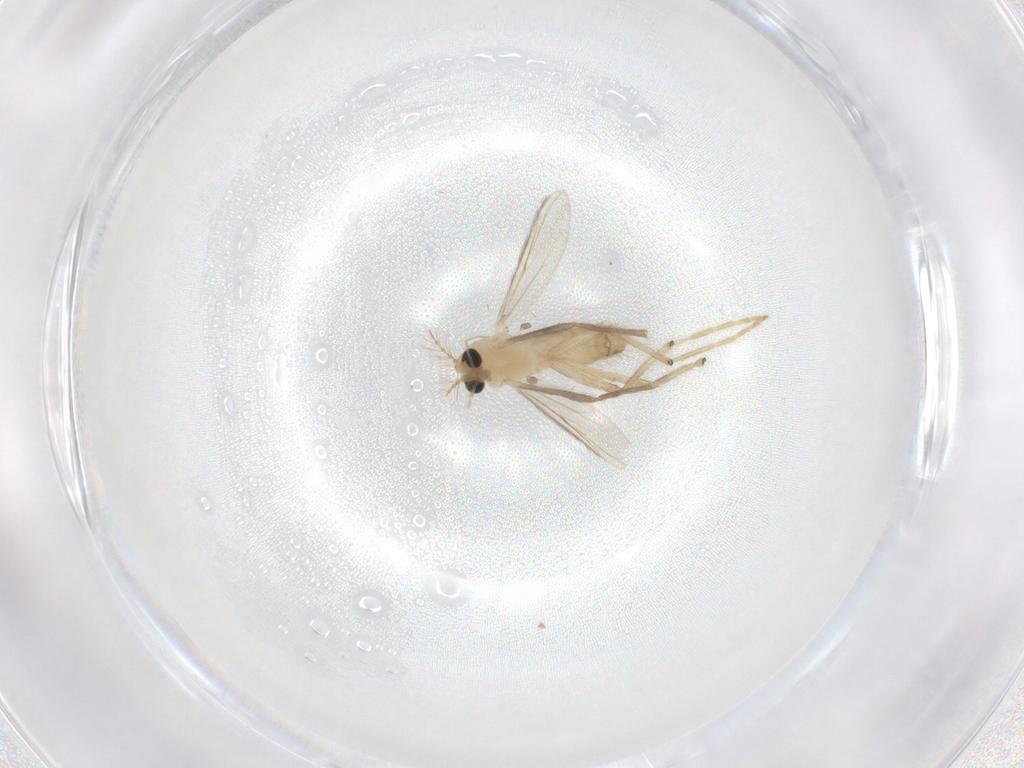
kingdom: Animalia
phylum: Arthropoda
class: Insecta
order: Diptera
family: Chironomidae
